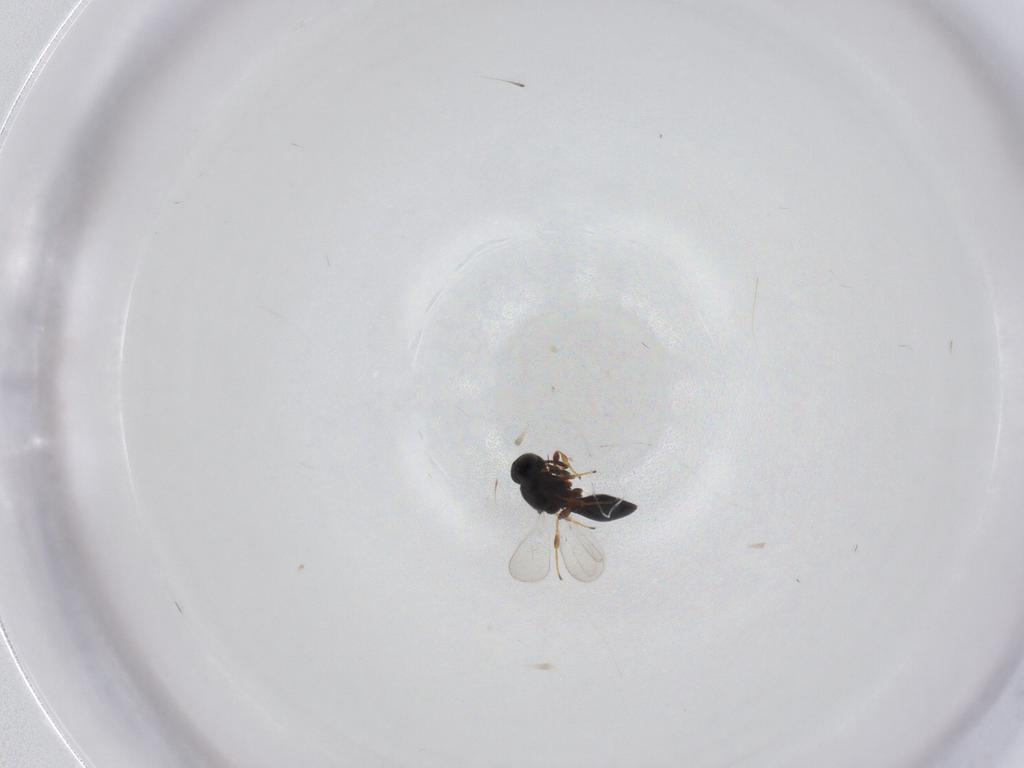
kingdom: Animalia
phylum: Arthropoda
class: Insecta
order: Hymenoptera
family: Platygastridae
